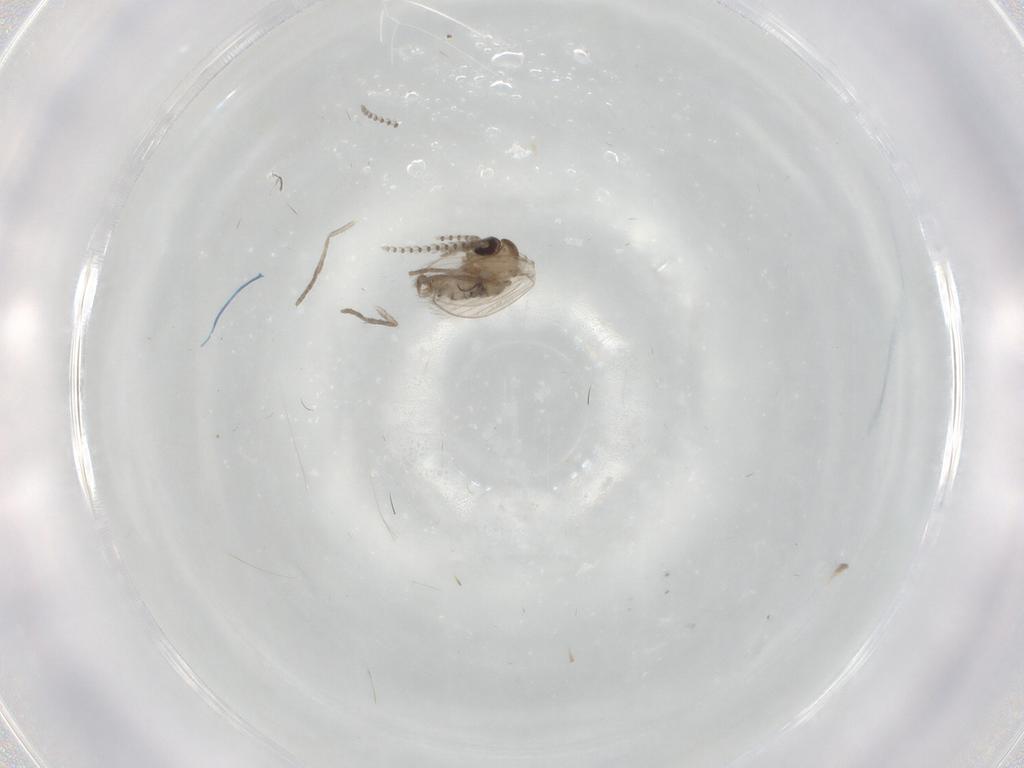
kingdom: Animalia
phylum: Arthropoda
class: Insecta
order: Diptera
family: Psychodidae
